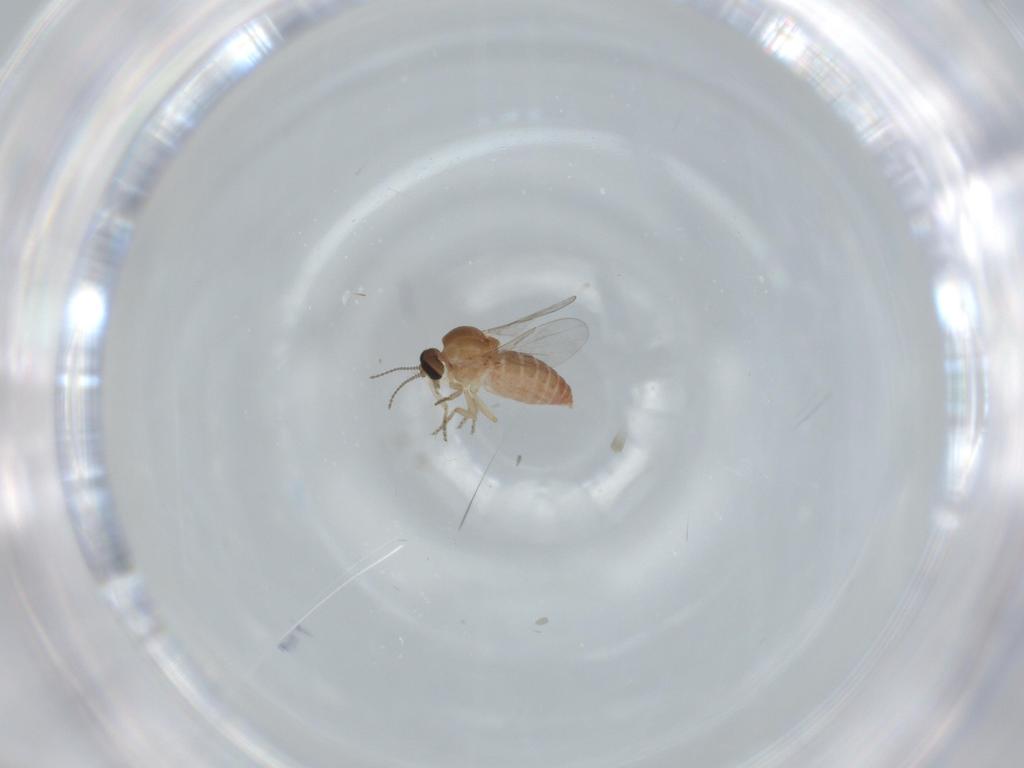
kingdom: Animalia
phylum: Arthropoda
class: Insecta
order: Diptera
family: Ceratopogonidae
